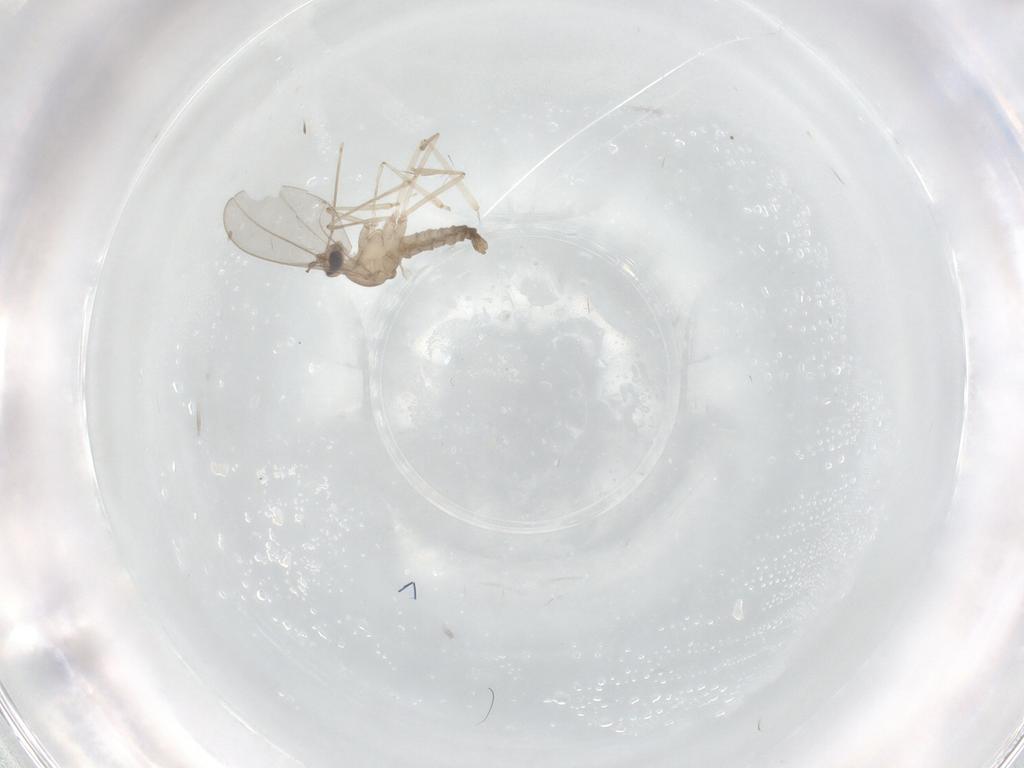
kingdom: Animalia
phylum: Arthropoda
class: Insecta
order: Diptera
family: Cecidomyiidae
